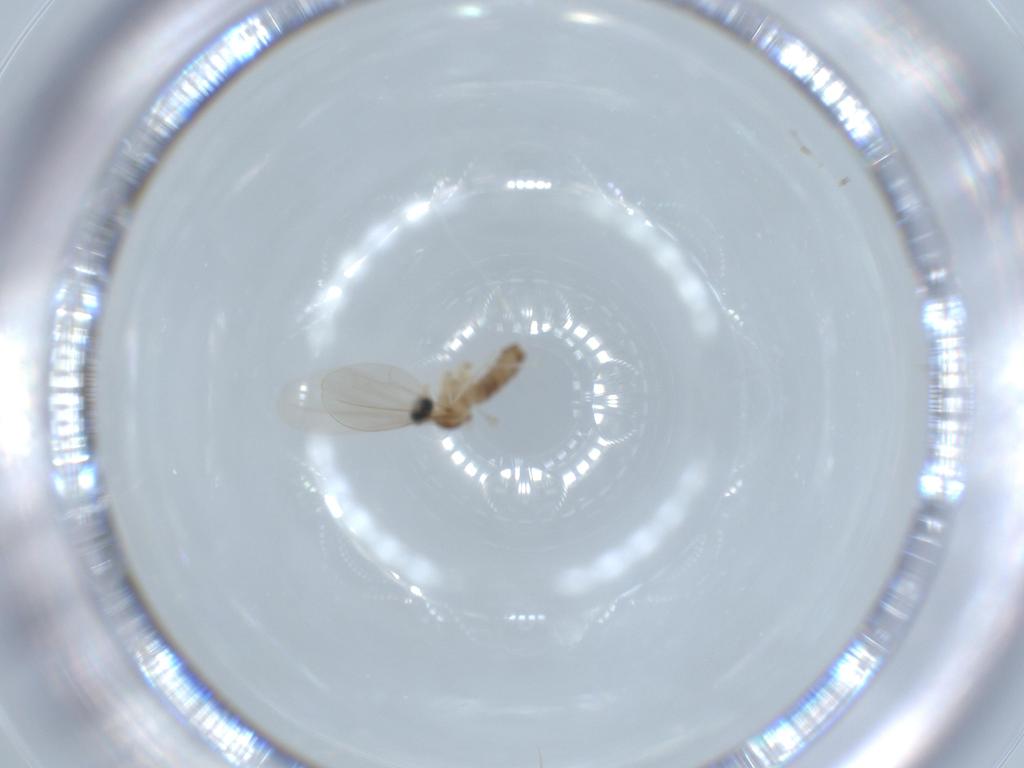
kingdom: Animalia
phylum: Arthropoda
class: Insecta
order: Diptera
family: Cecidomyiidae
